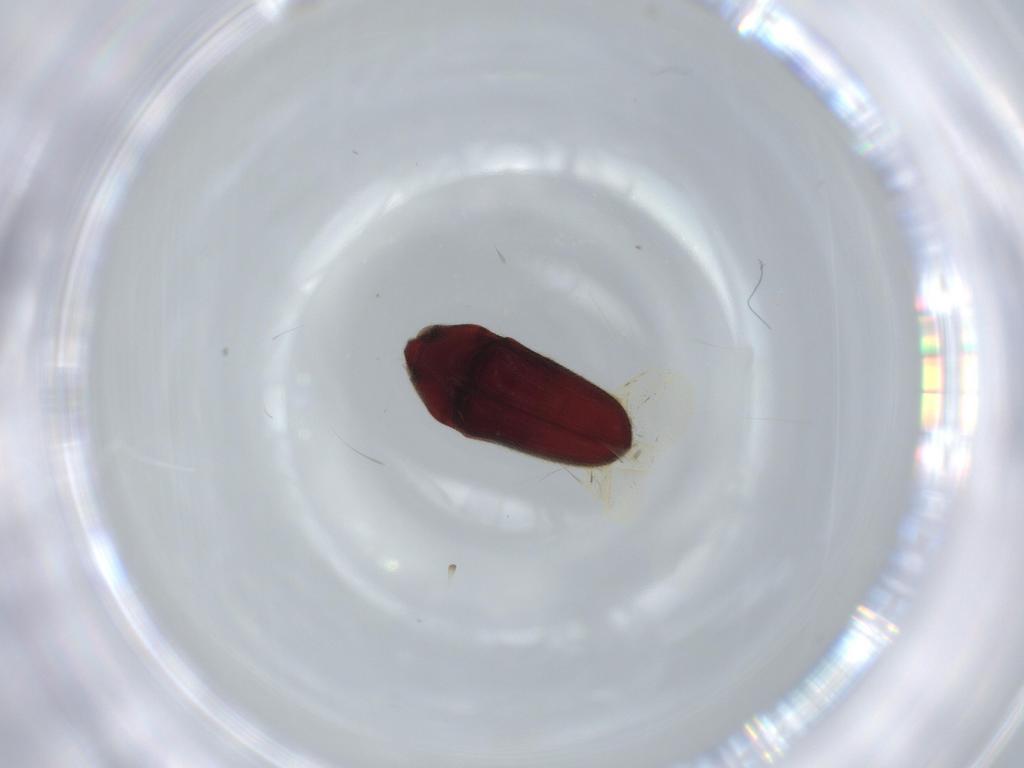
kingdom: Animalia
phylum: Arthropoda
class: Insecta
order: Coleoptera
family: Throscidae
